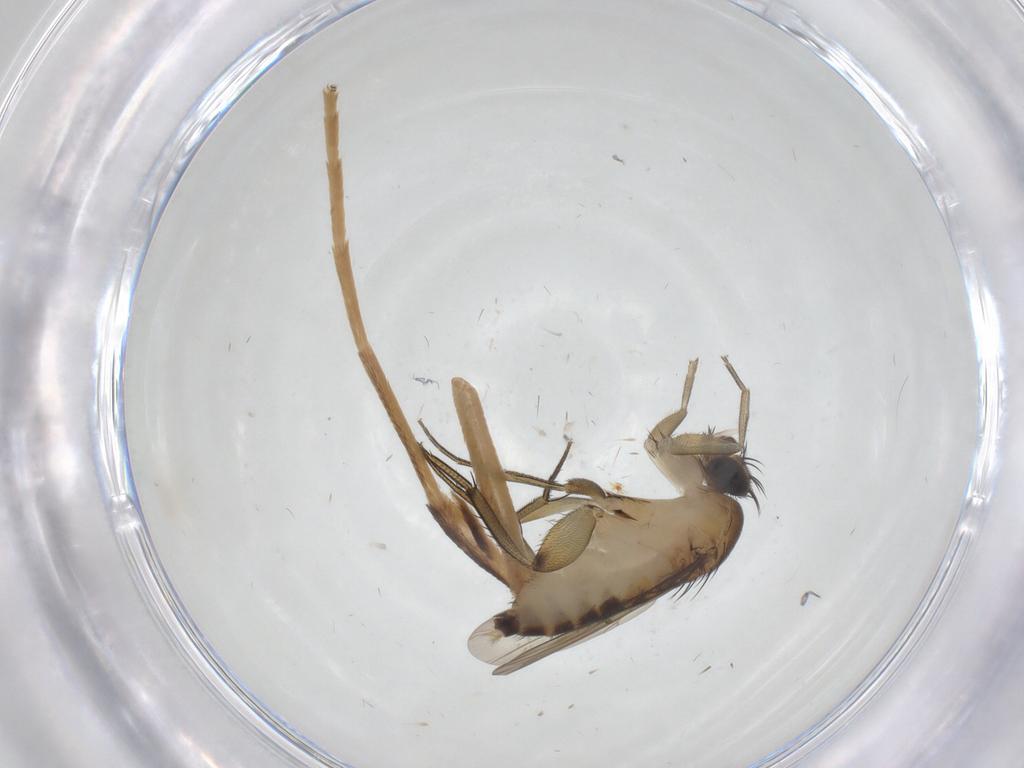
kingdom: Animalia
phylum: Arthropoda
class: Insecta
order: Diptera
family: Phoridae
